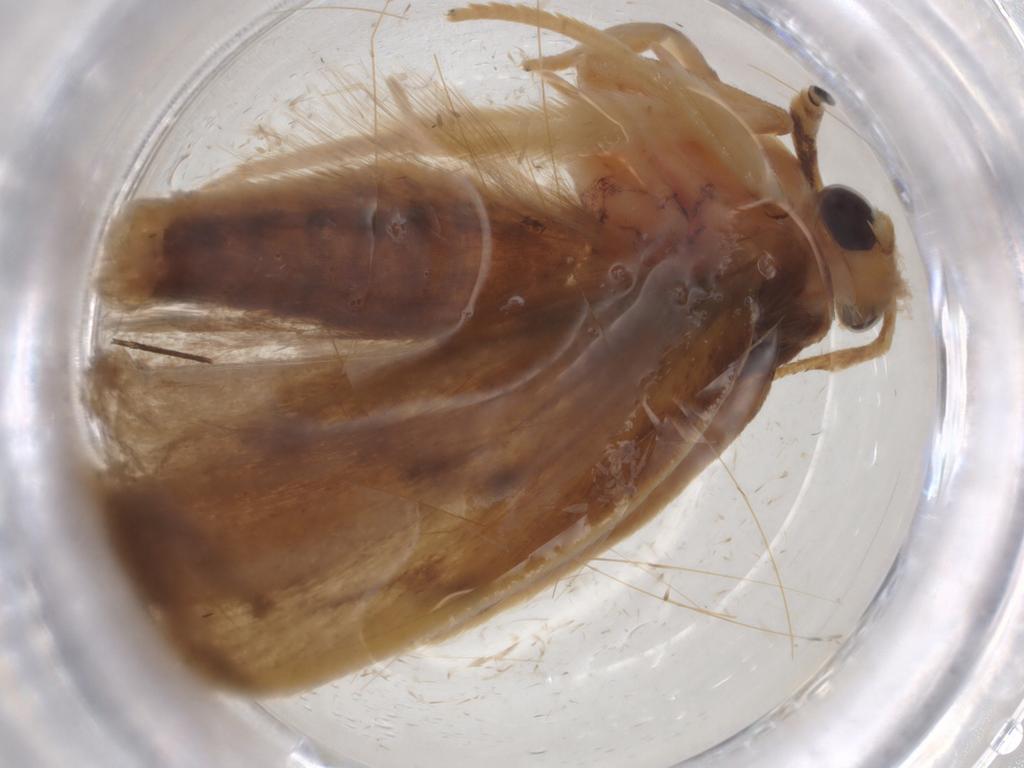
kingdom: Animalia
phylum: Arthropoda
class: Insecta
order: Lepidoptera
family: Depressariidae
